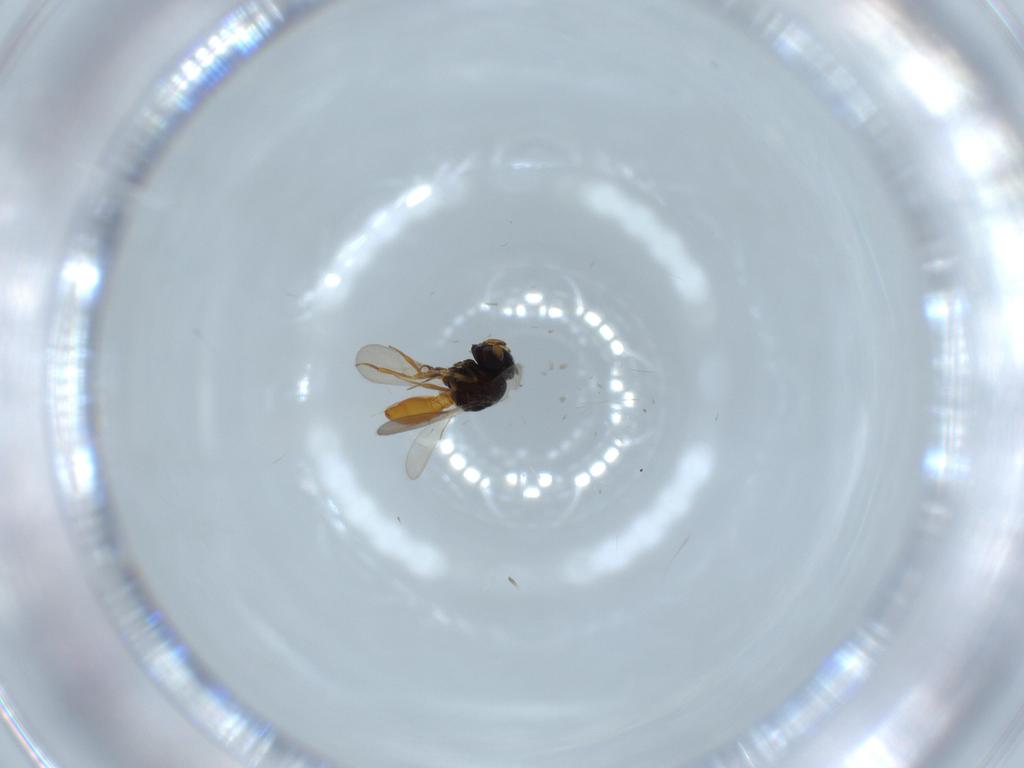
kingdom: Animalia
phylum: Arthropoda
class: Insecta
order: Hymenoptera
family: Scelionidae
